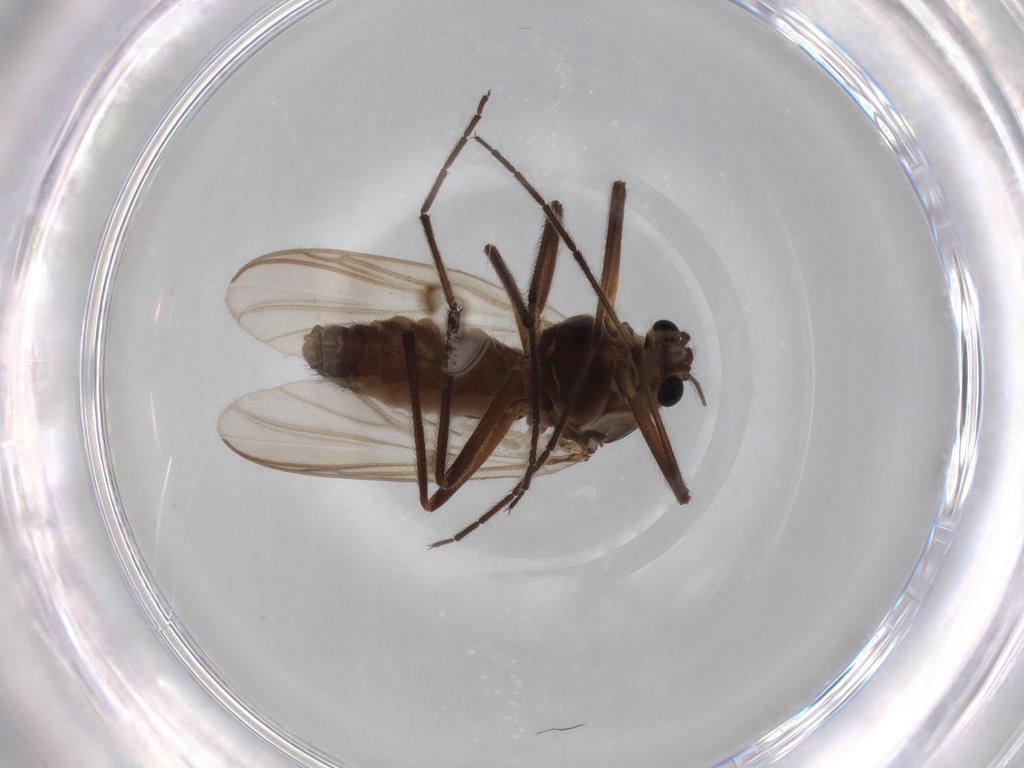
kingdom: Animalia
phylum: Arthropoda
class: Insecta
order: Diptera
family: Chironomidae
